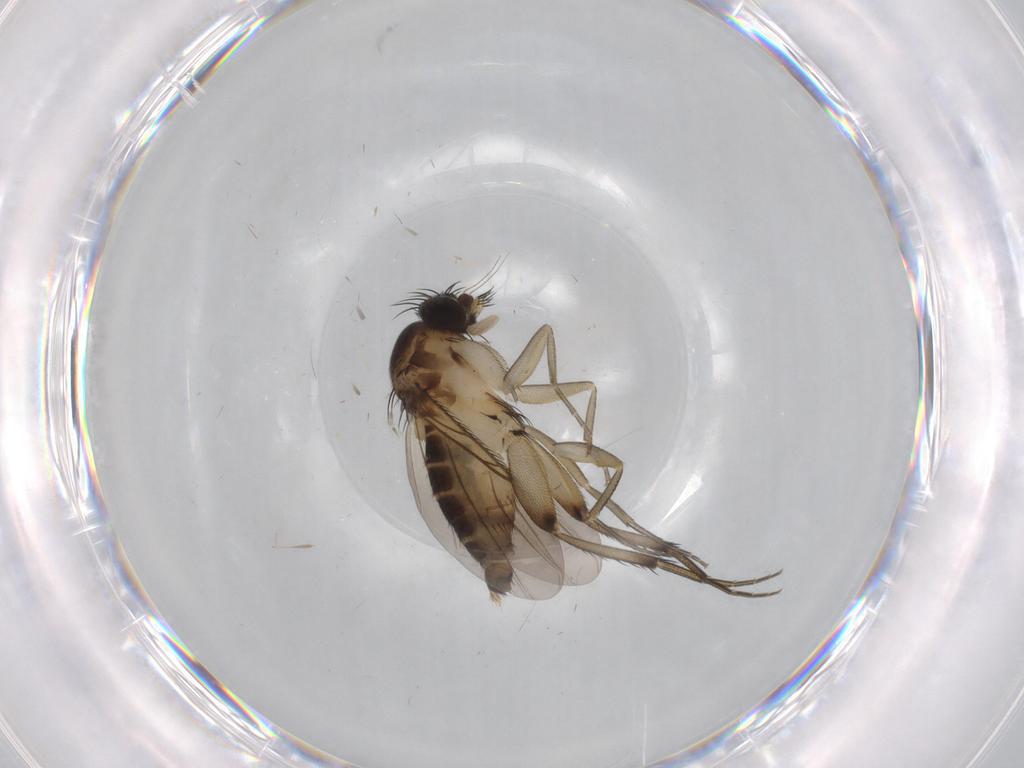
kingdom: Animalia
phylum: Arthropoda
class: Insecta
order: Diptera
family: Phoridae
